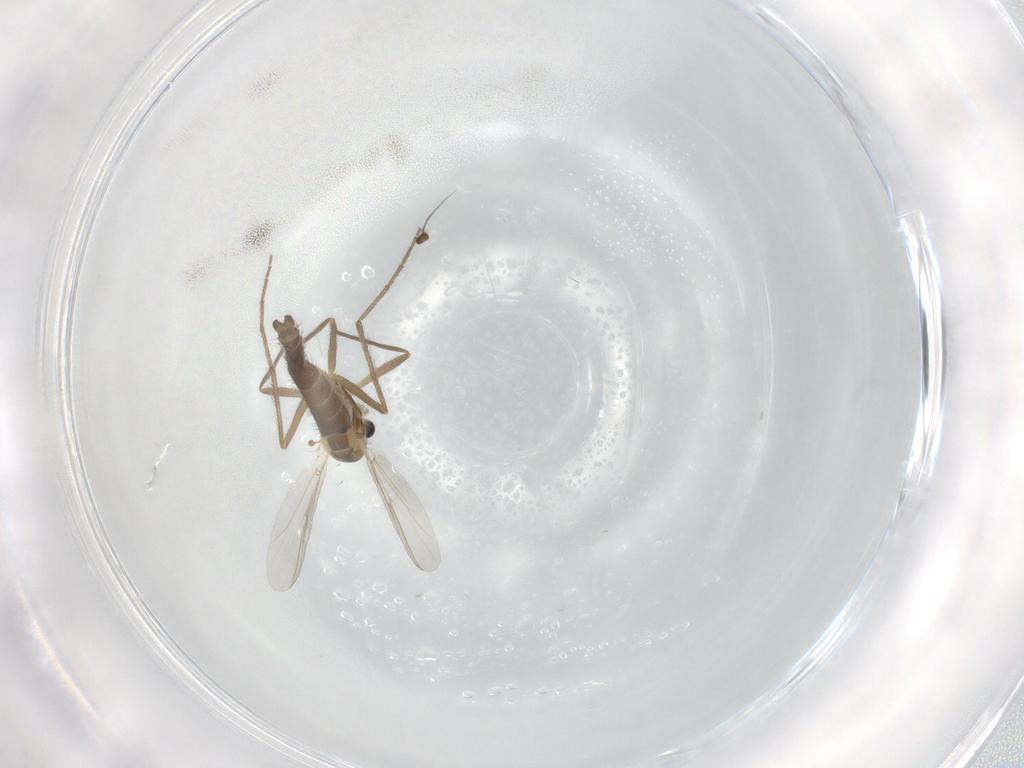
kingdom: Animalia
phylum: Arthropoda
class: Insecta
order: Diptera
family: Chironomidae
